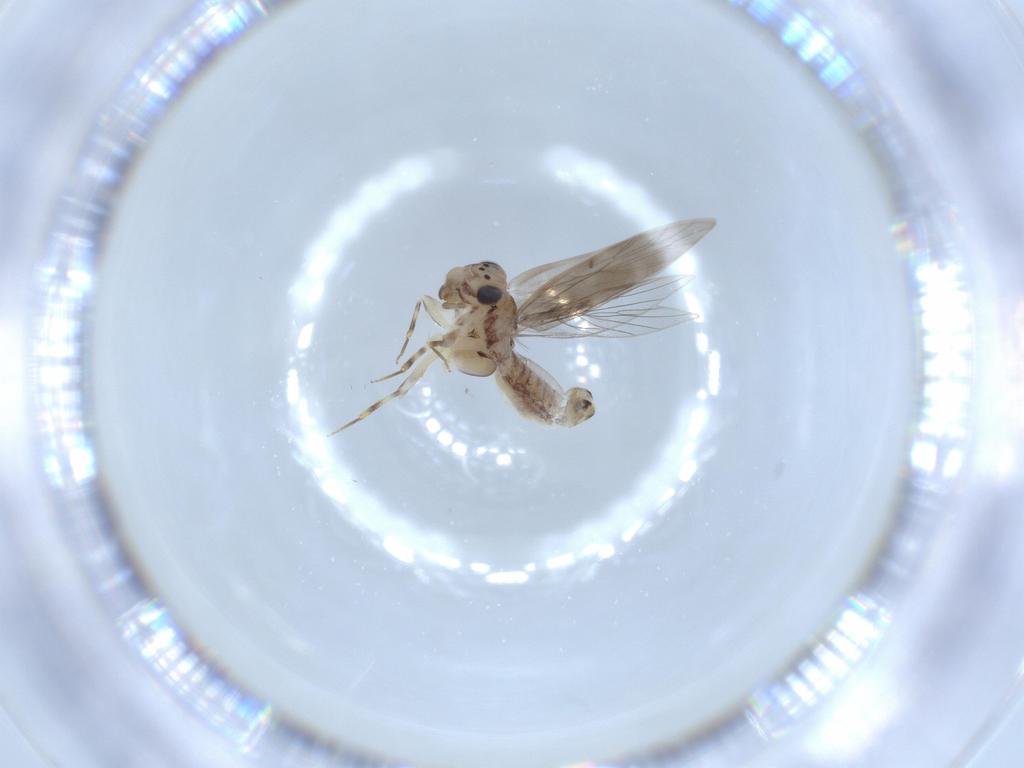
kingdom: Animalia
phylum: Arthropoda
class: Insecta
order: Psocodea
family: Lepidopsocidae
